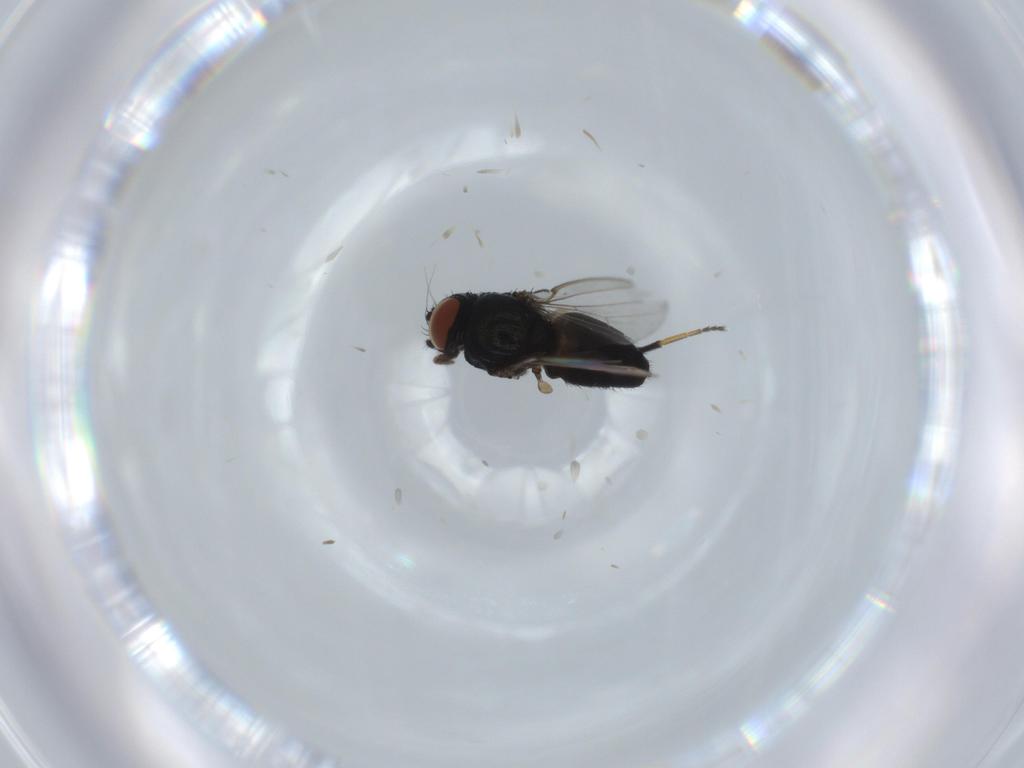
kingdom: Animalia
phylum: Arthropoda
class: Insecta
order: Diptera
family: Milichiidae
